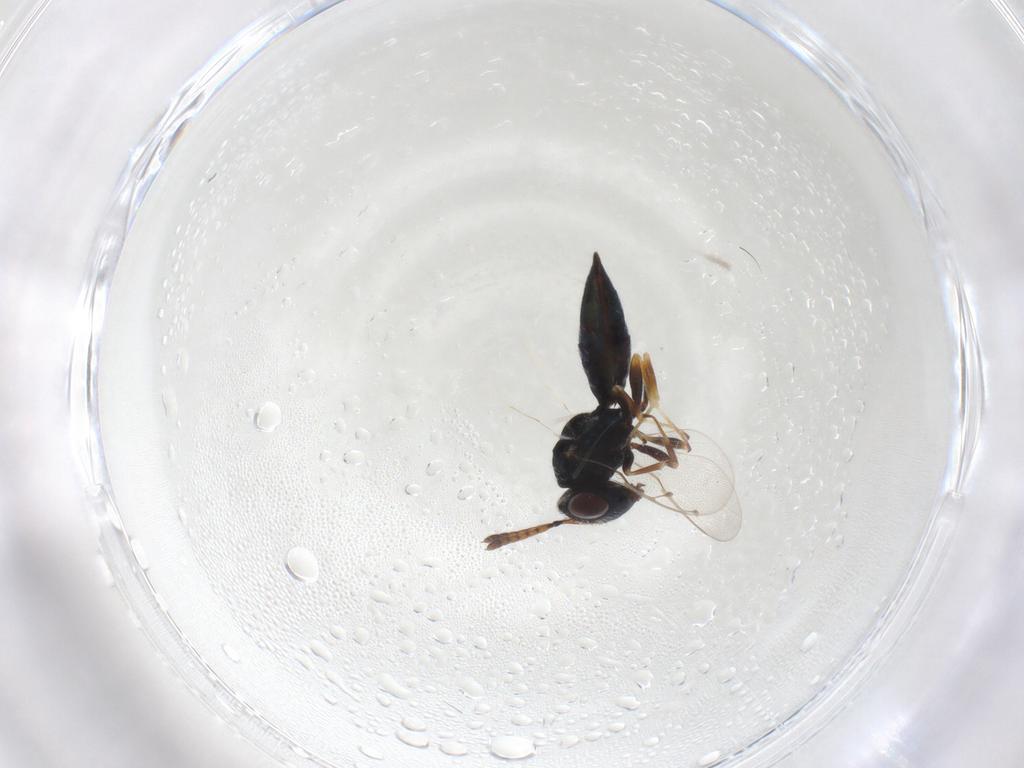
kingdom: Animalia
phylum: Arthropoda
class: Insecta
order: Hymenoptera
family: Pteromalidae
